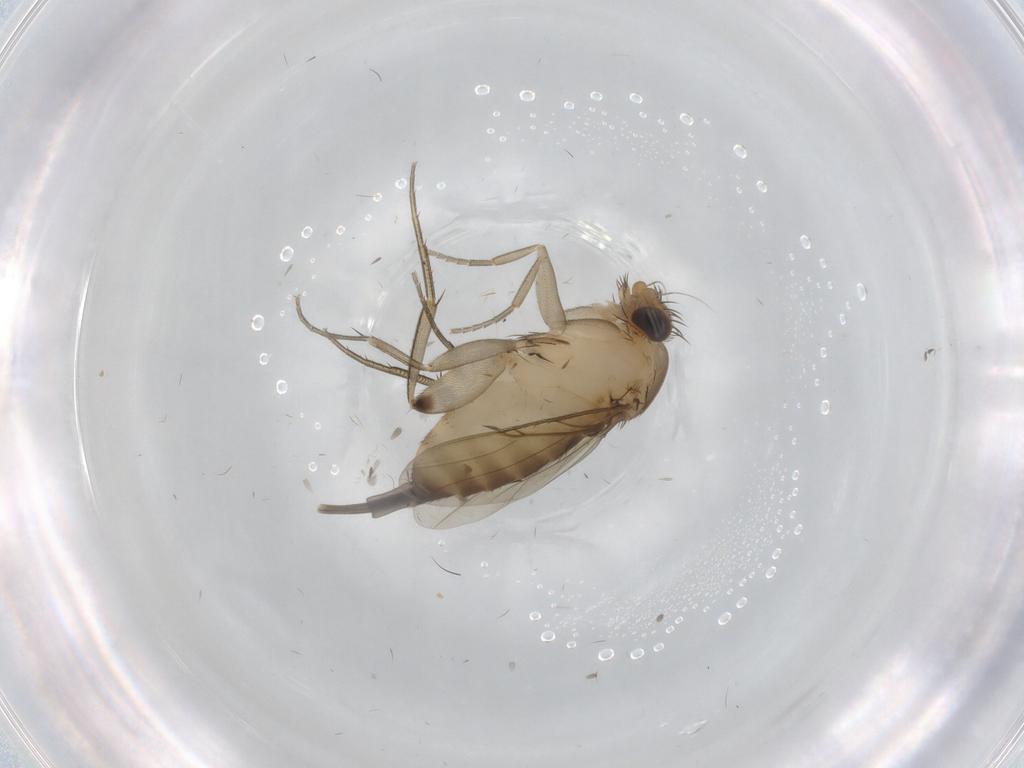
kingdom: Animalia
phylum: Arthropoda
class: Insecta
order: Diptera
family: Phoridae
